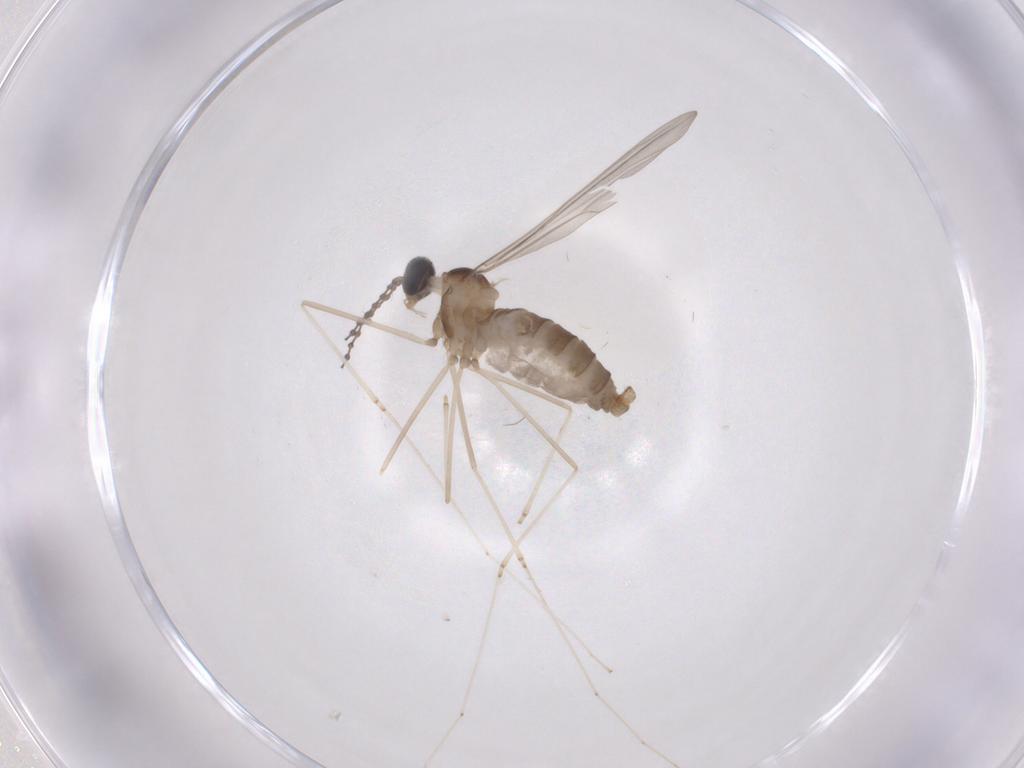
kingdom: Animalia
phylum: Arthropoda
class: Insecta
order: Diptera
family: Cecidomyiidae
